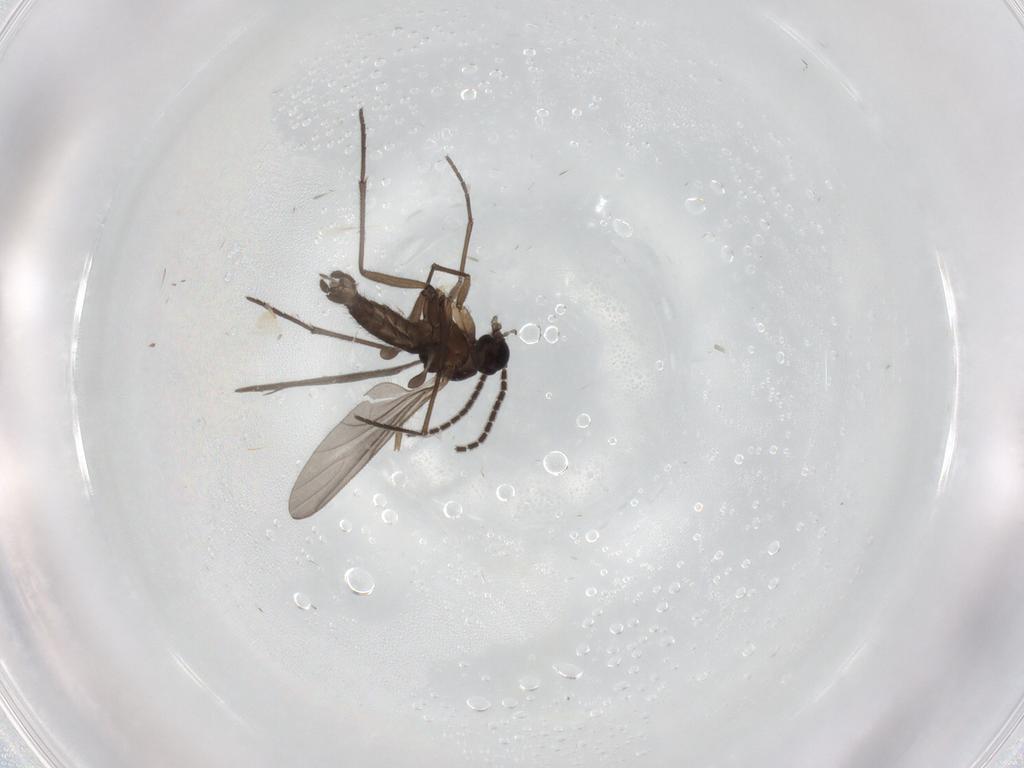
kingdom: Animalia
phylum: Arthropoda
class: Insecta
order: Diptera
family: Sciaridae
